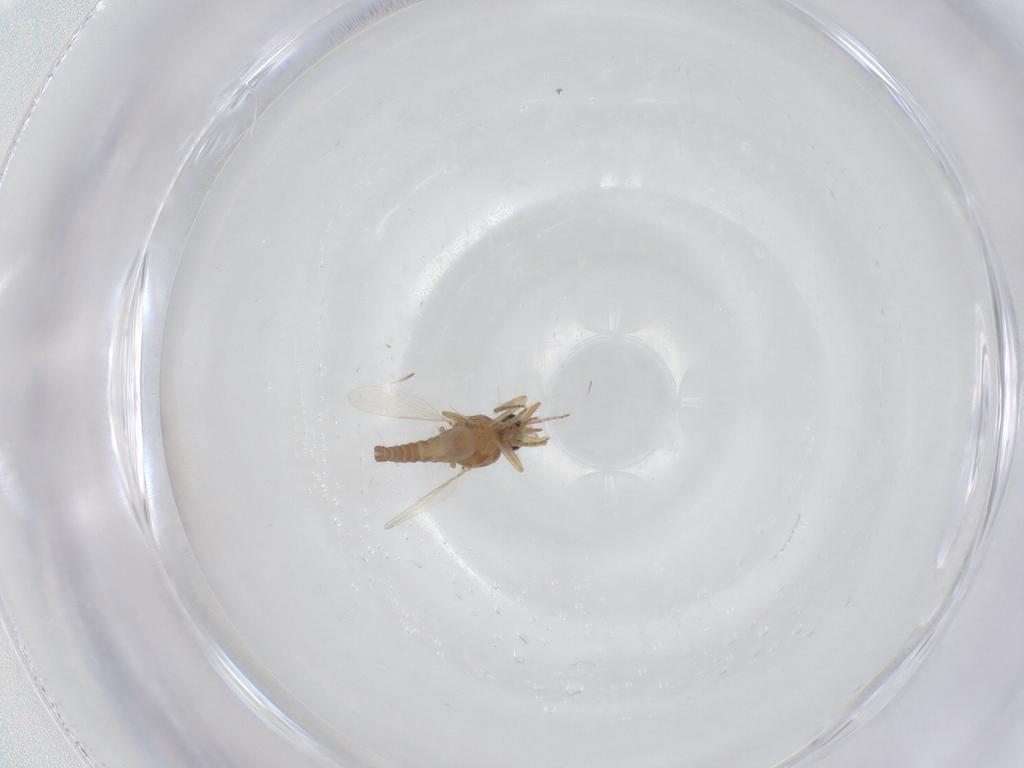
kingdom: Animalia
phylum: Arthropoda
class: Insecta
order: Diptera
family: Ceratopogonidae
